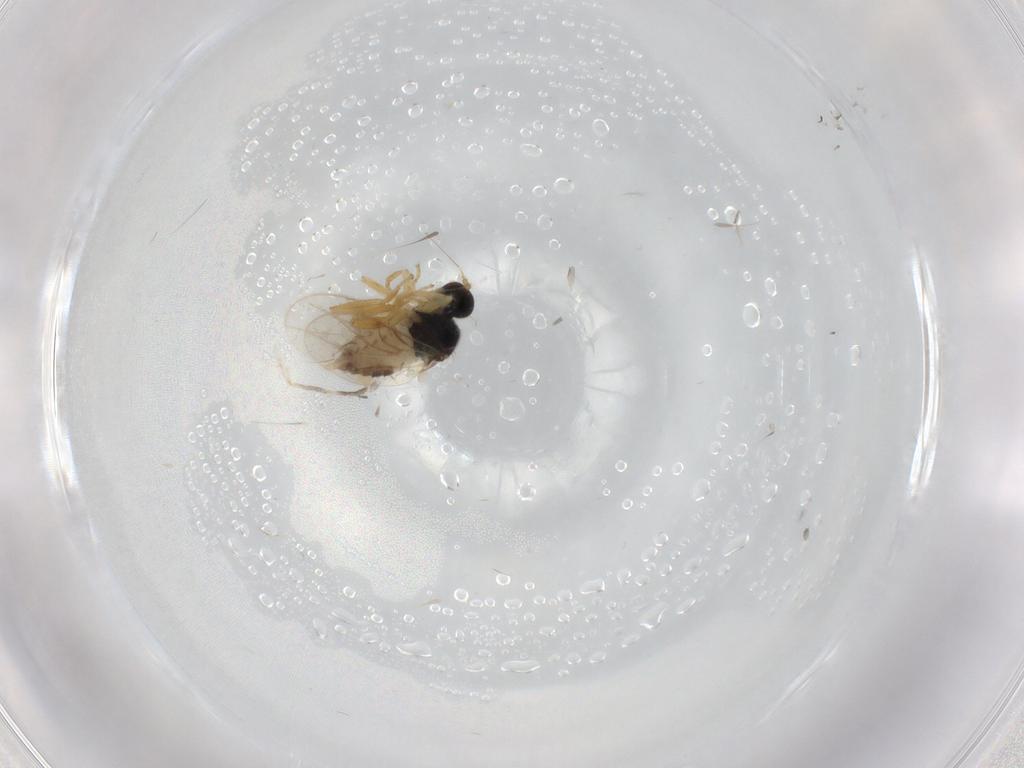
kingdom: Animalia
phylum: Arthropoda
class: Insecta
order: Diptera
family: Hybotidae
